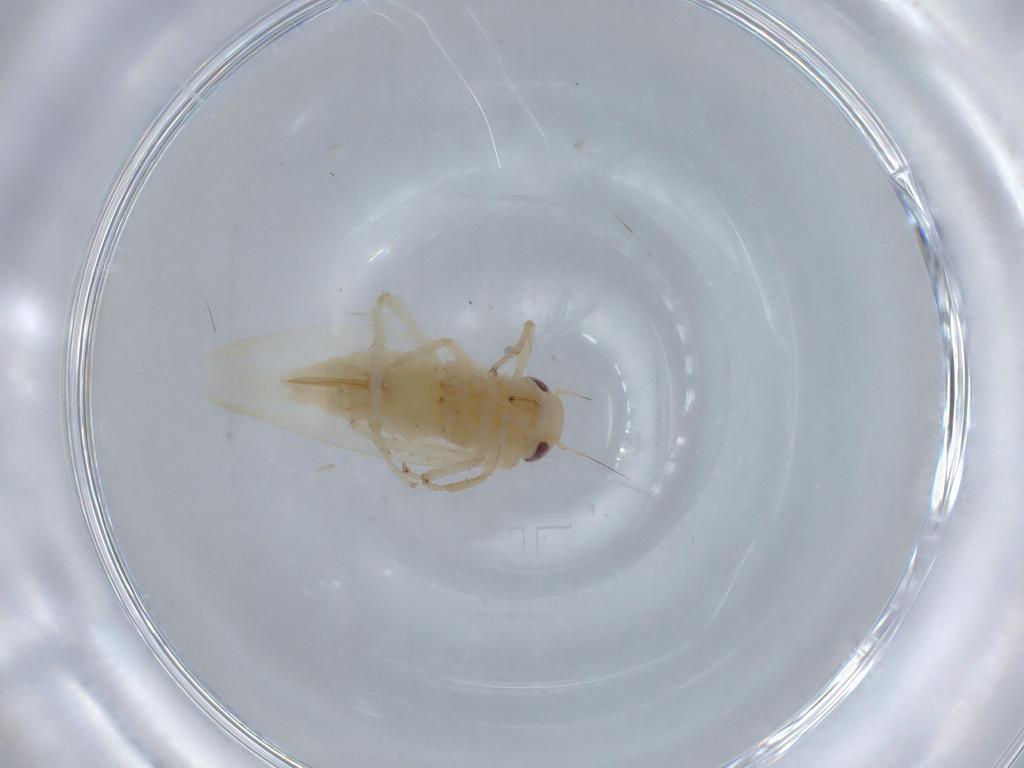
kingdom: Animalia
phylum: Arthropoda
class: Insecta
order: Hemiptera
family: Cicadellidae
